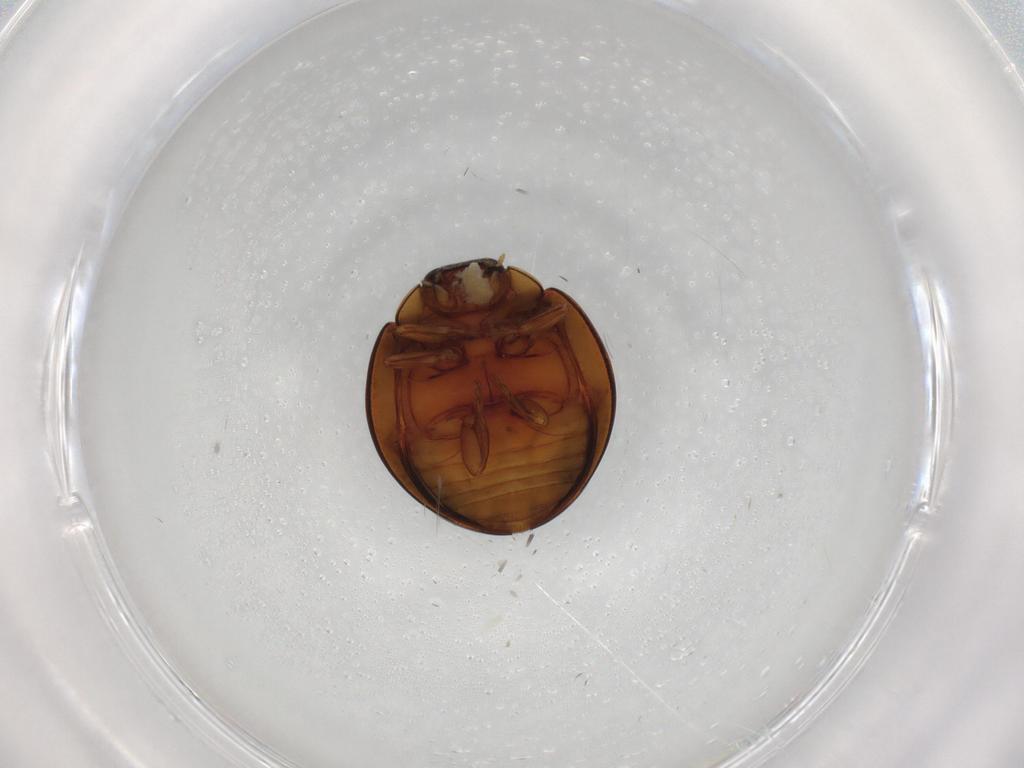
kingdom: Animalia
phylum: Arthropoda
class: Insecta
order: Coleoptera
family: Coccinellidae
